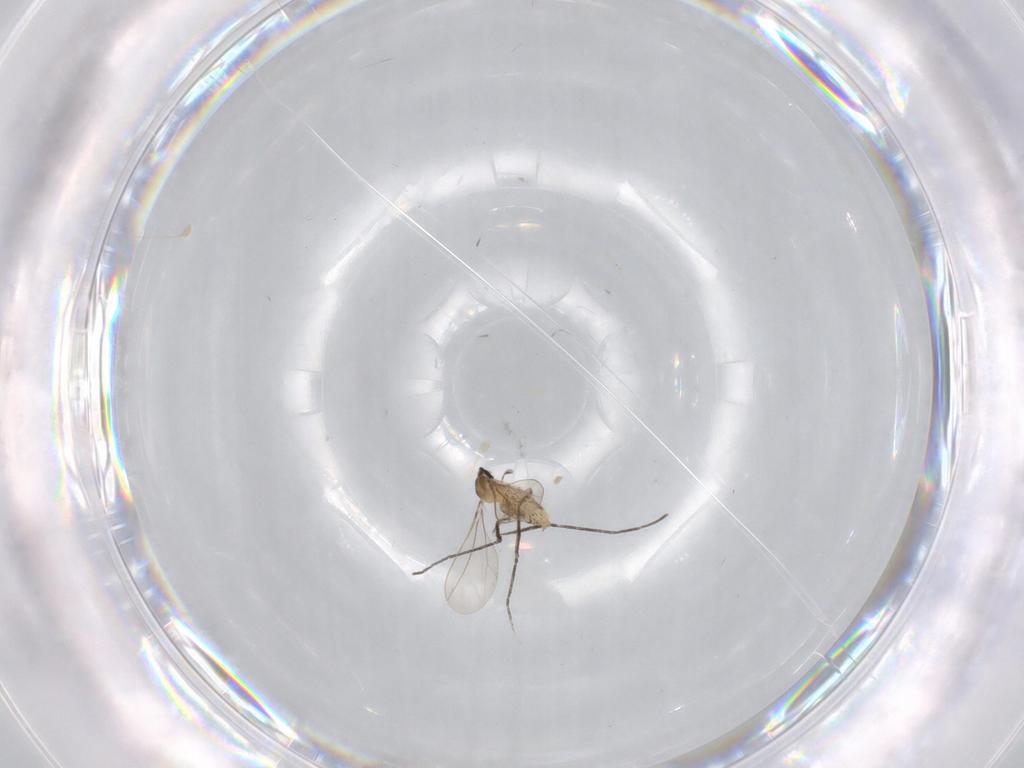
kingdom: Animalia
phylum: Arthropoda
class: Insecta
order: Diptera
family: Cecidomyiidae
